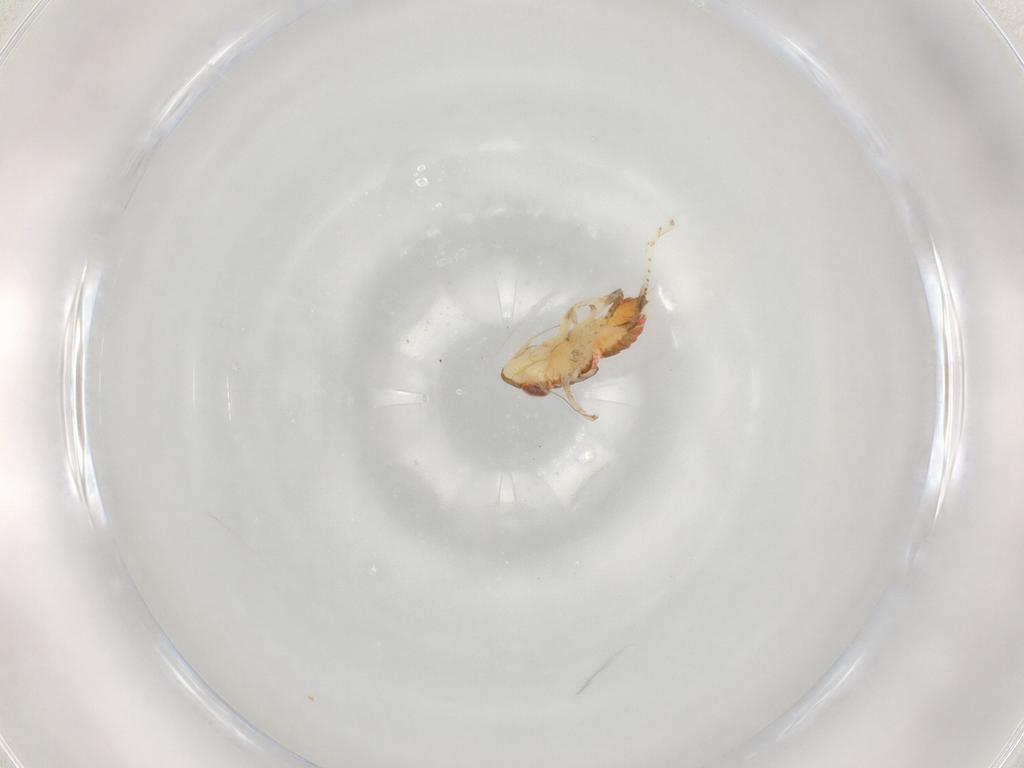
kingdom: Animalia
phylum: Arthropoda
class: Insecta
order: Hemiptera
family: Cicadellidae
